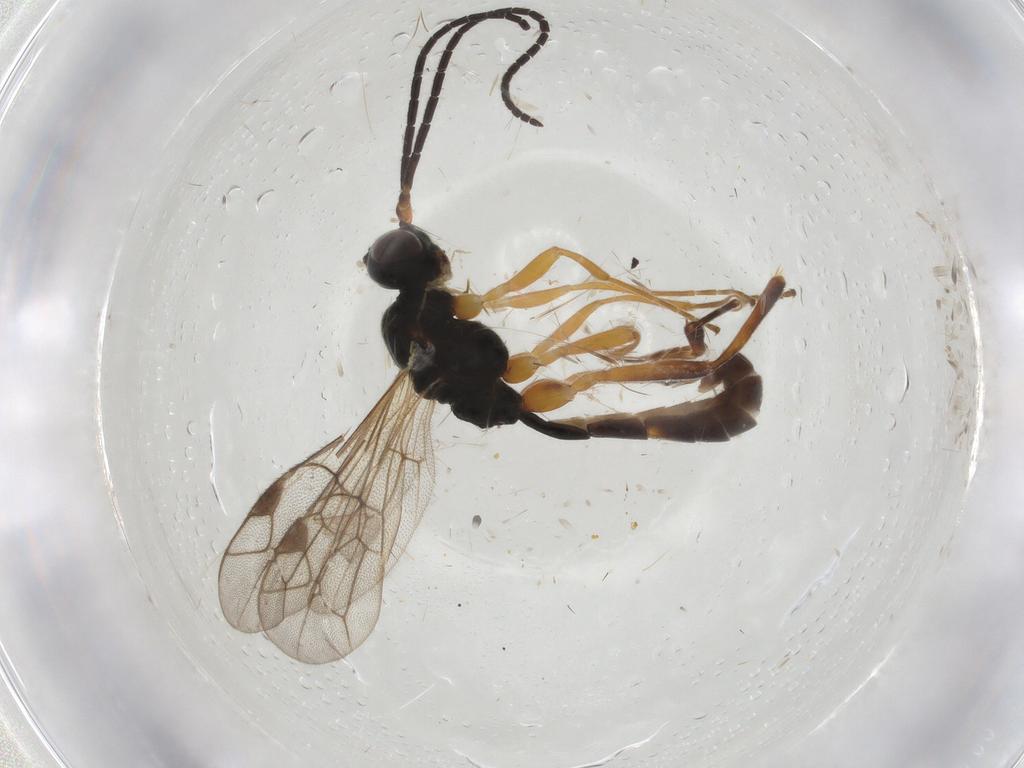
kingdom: Animalia
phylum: Arthropoda
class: Insecta
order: Hymenoptera
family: Ichneumonidae
